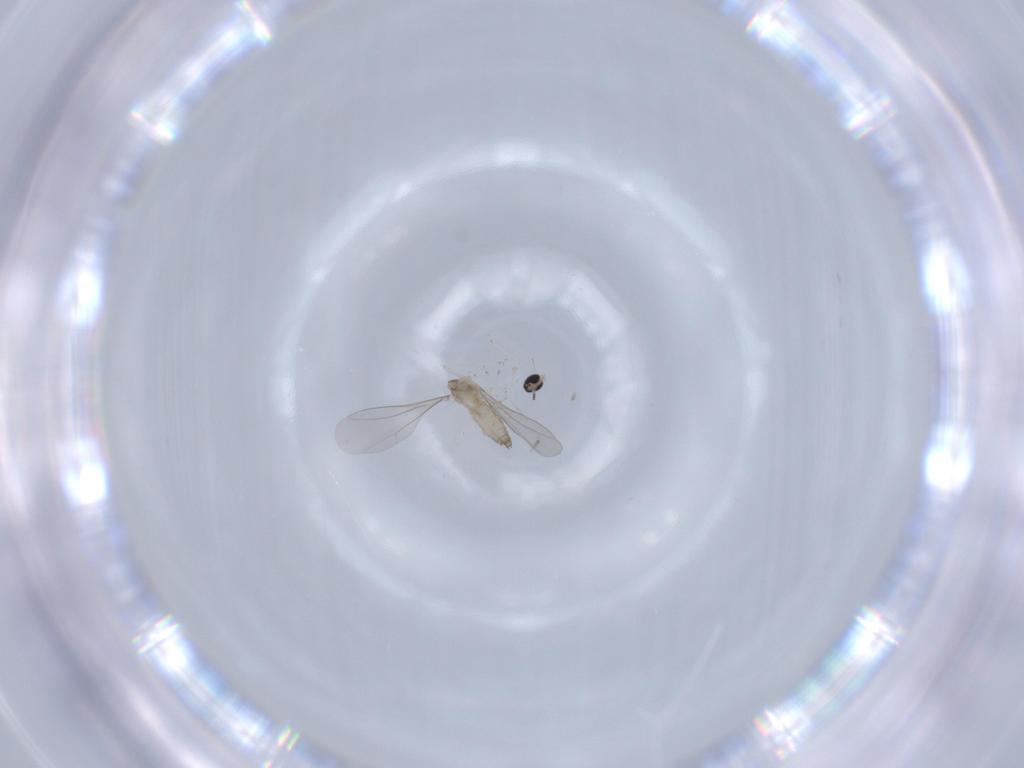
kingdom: Animalia
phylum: Arthropoda
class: Insecta
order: Diptera
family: Cecidomyiidae
